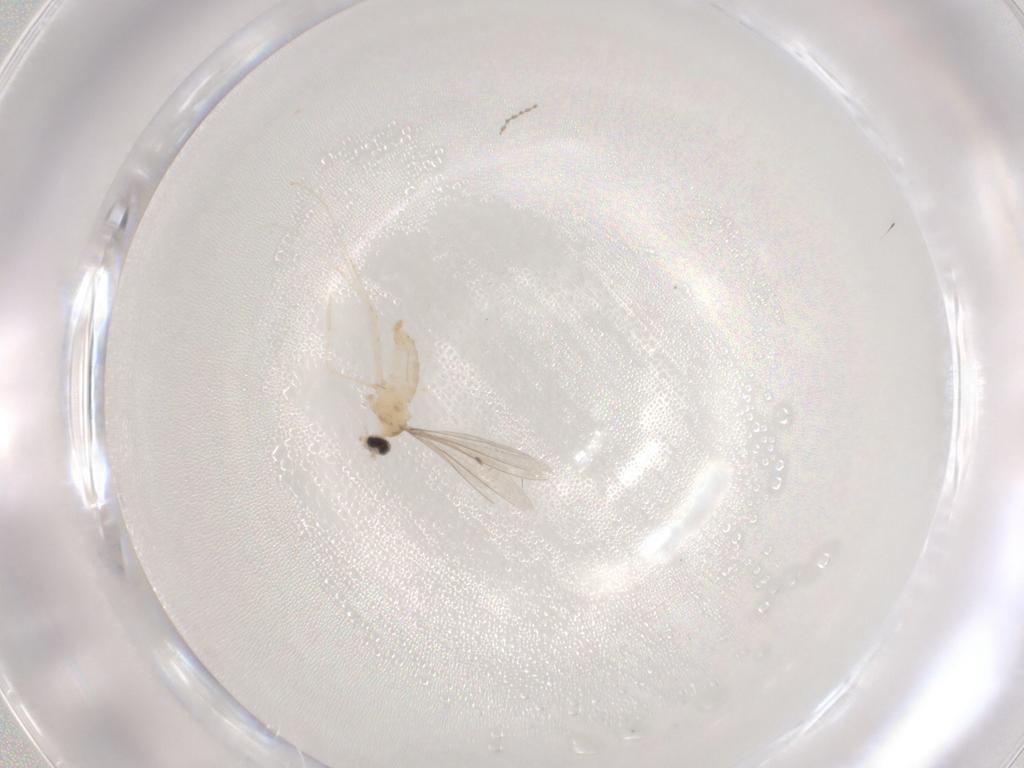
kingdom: Animalia
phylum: Arthropoda
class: Insecta
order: Diptera
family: Cecidomyiidae
